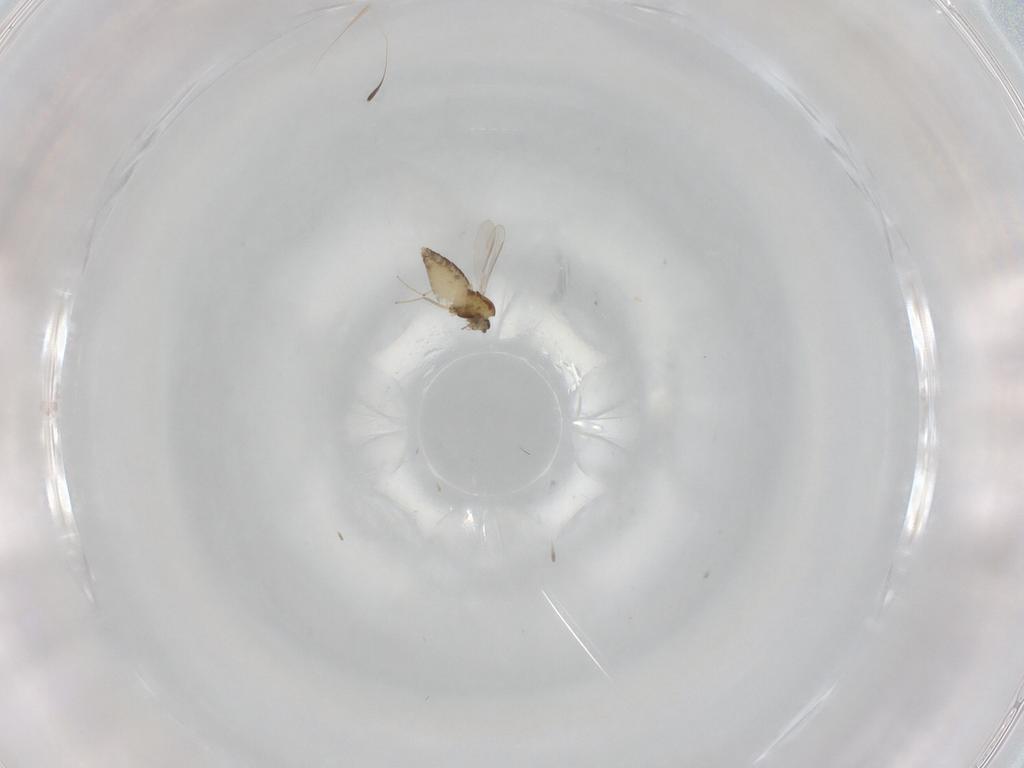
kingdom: Animalia
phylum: Arthropoda
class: Insecta
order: Diptera
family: Chironomidae
